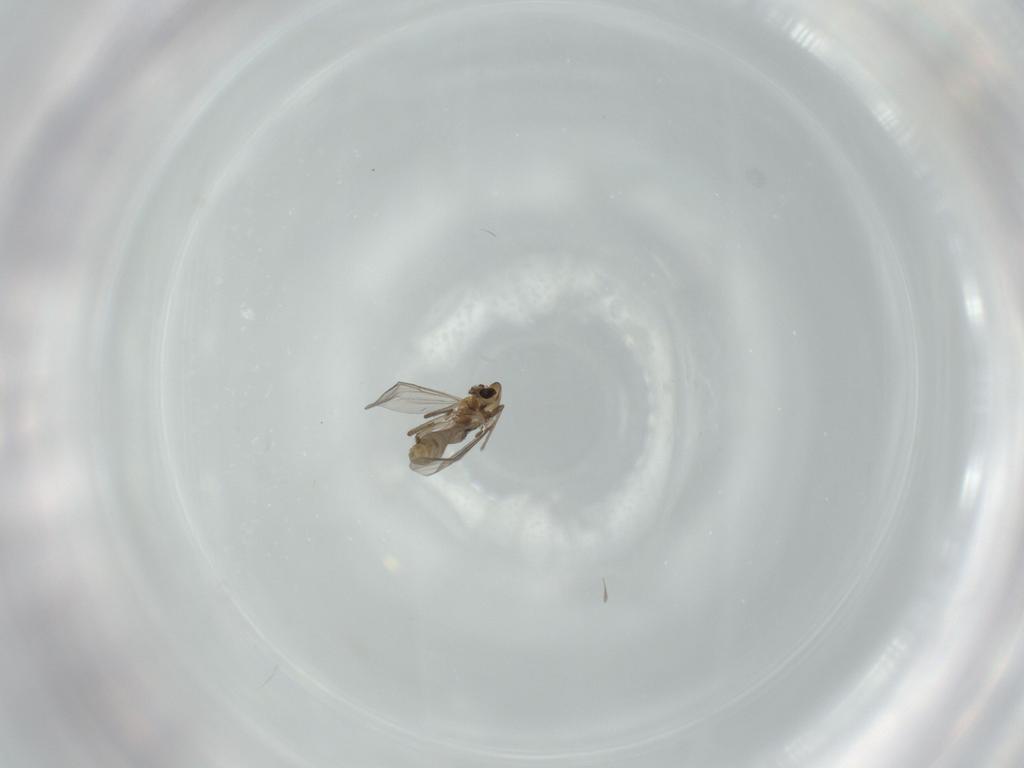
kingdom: Animalia
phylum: Arthropoda
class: Insecta
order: Diptera
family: Chironomidae
